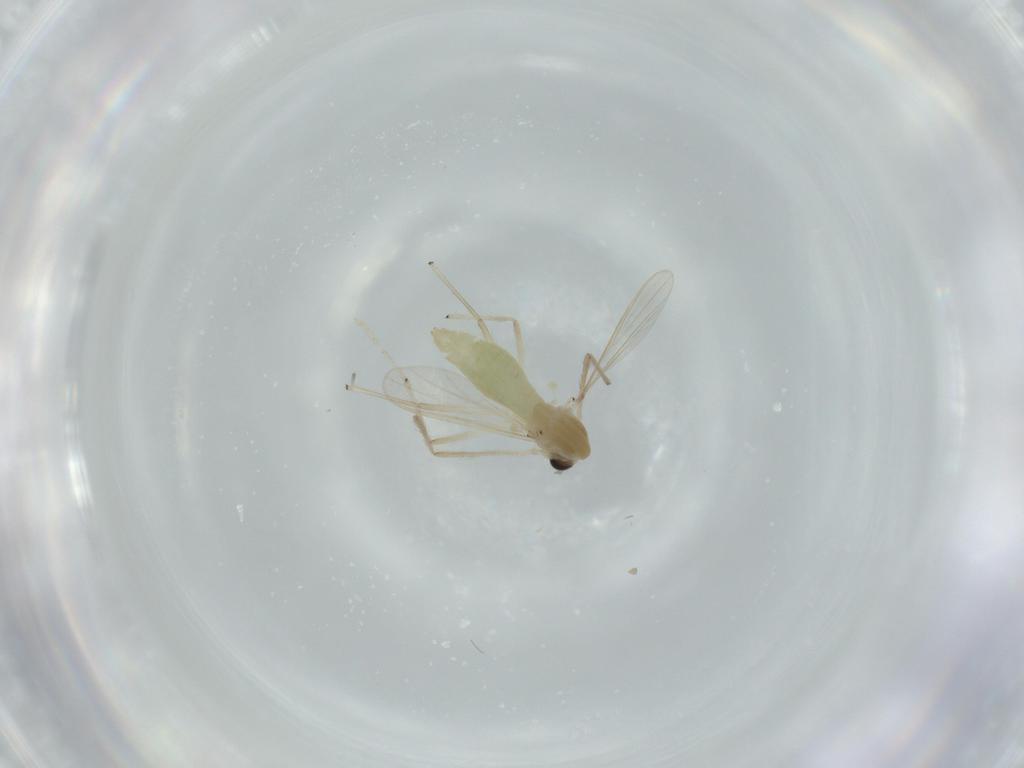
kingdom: Animalia
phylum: Arthropoda
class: Insecta
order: Diptera
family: Chironomidae
